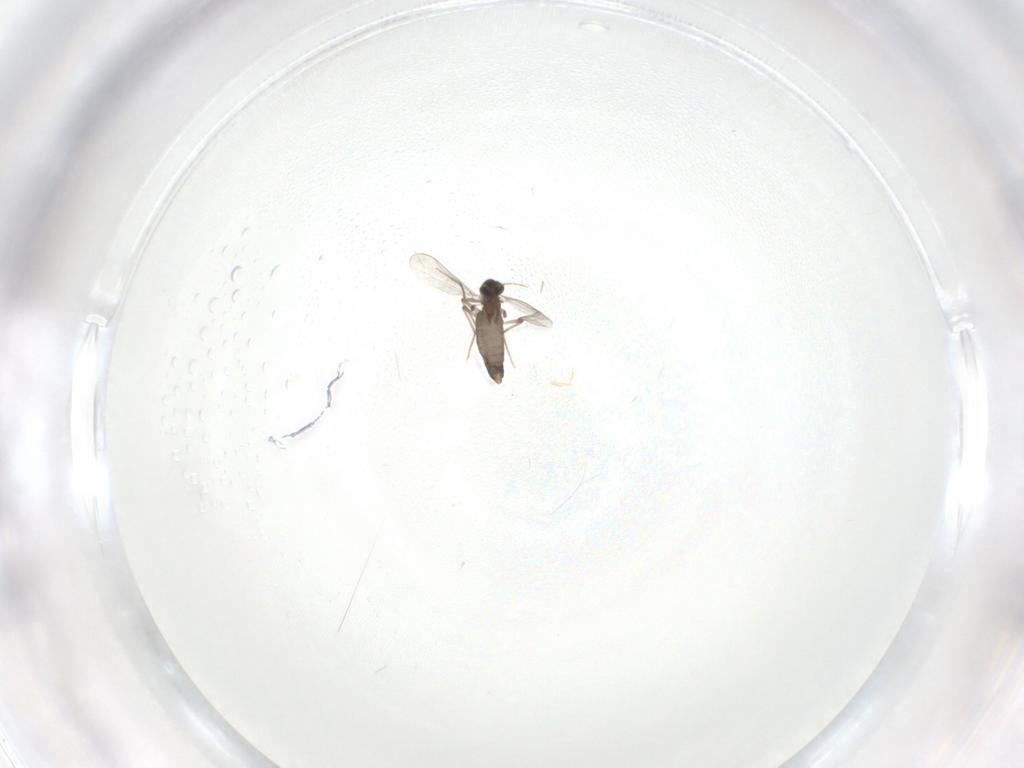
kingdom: Animalia
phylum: Arthropoda
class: Insecta
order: Diptera
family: Chironomidae
